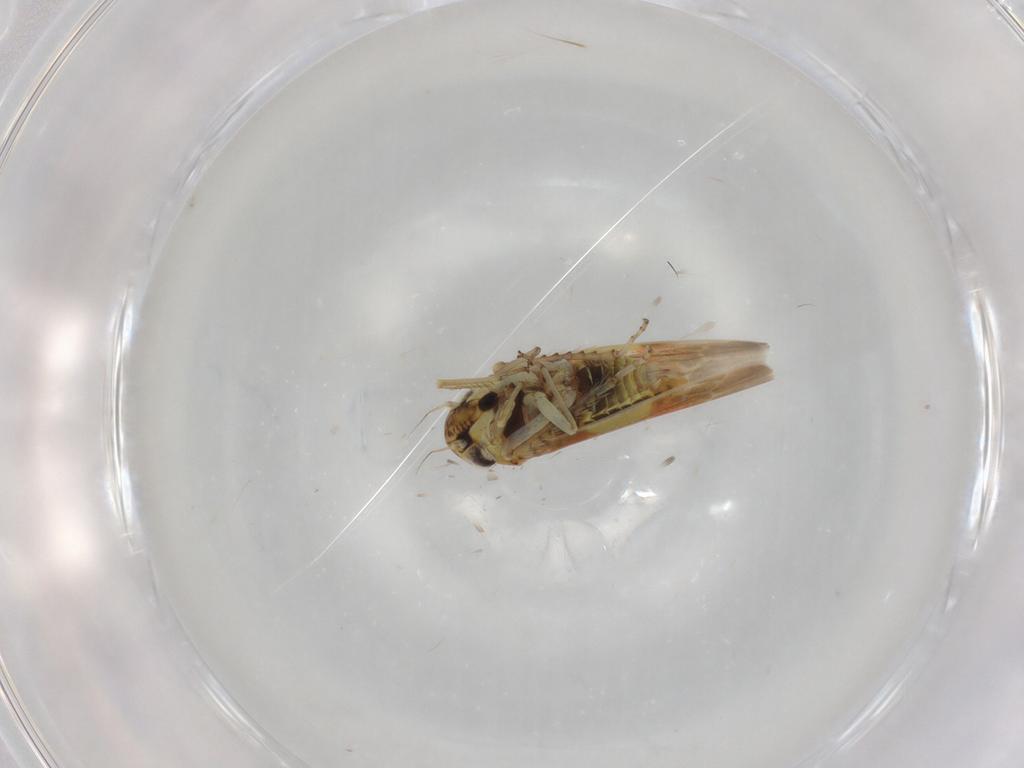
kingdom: Animalia
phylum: Arthropoda
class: Insecta
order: Hemiptera
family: Cicadellidae
